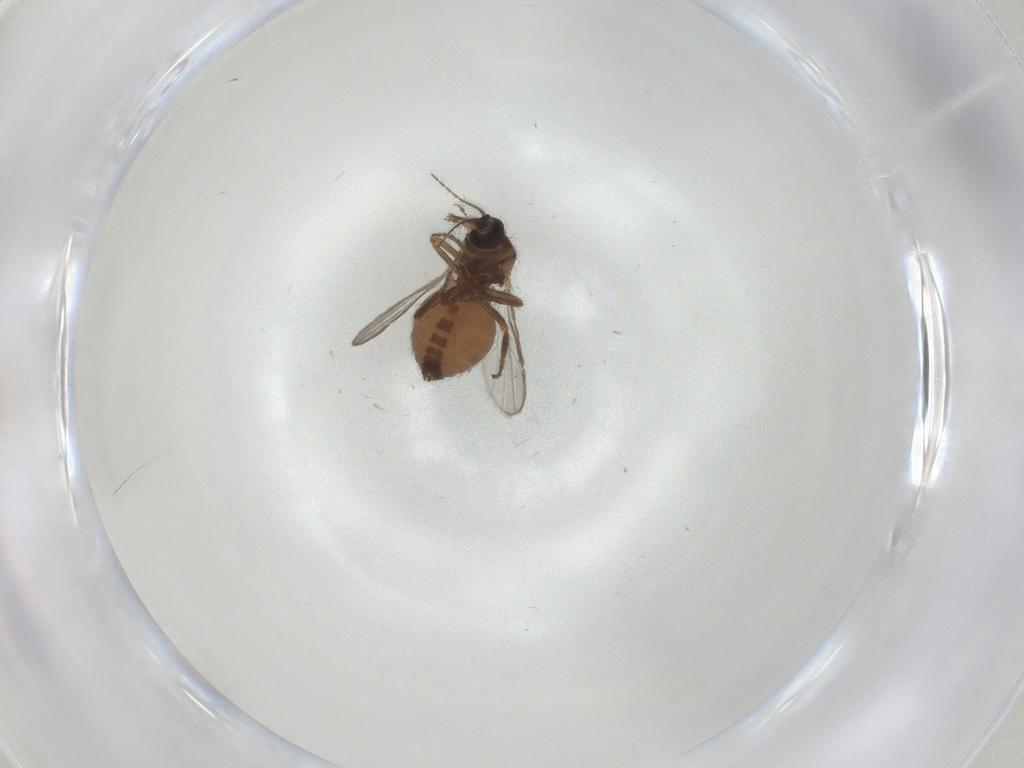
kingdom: Animalia
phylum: Arthropoda
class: Insecta
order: Diptera
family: Ceratopogonidae
